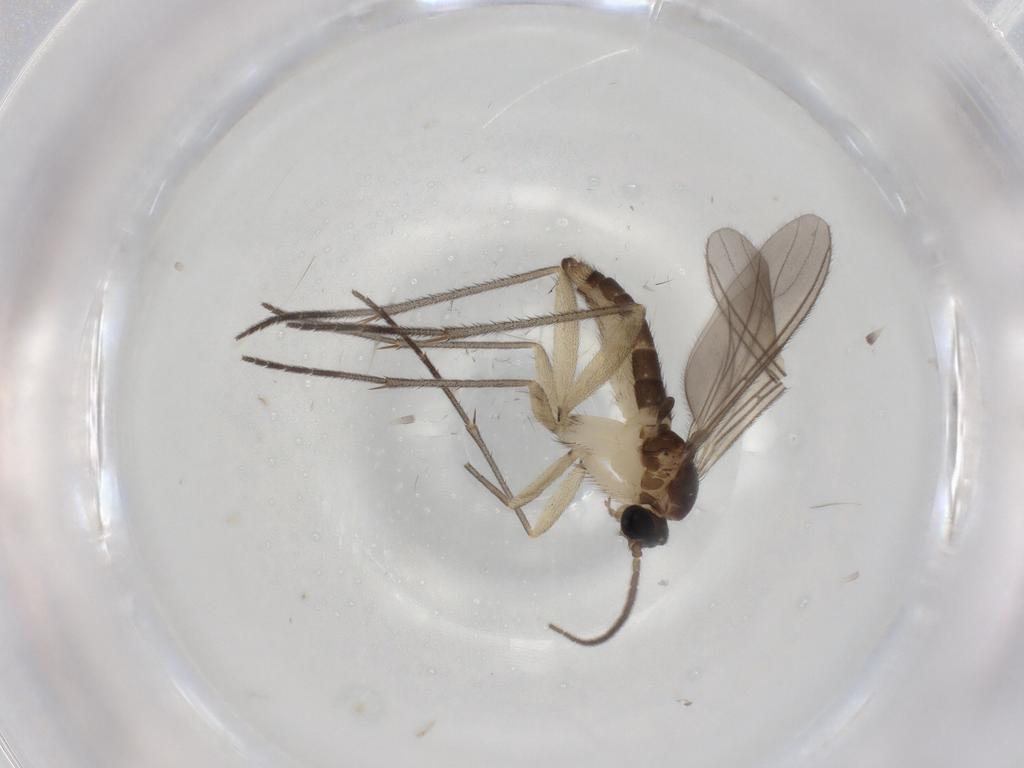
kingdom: Animalia
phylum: Arthropoda
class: Insecta
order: Diptera
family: Sciaridae
